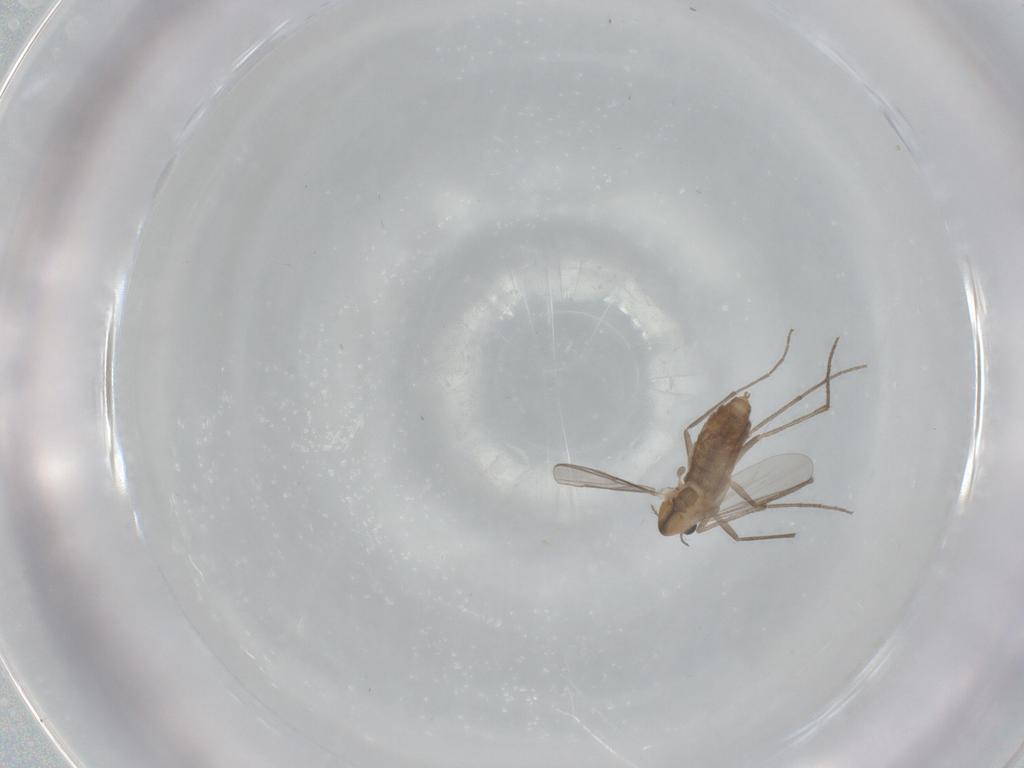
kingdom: Animalia
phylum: Arthropoda
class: Insecta
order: Diptera
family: Chironomidae
